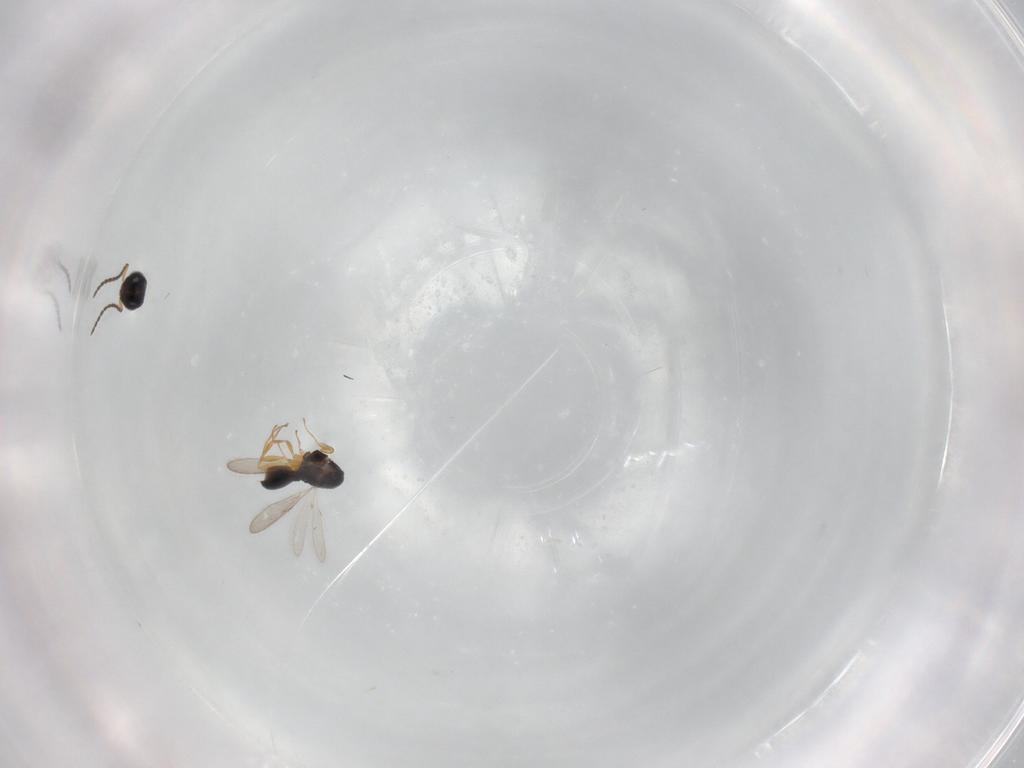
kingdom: Animalia
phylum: Arthropoda
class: Insecta
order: Hymenoptera
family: Scelionidae
